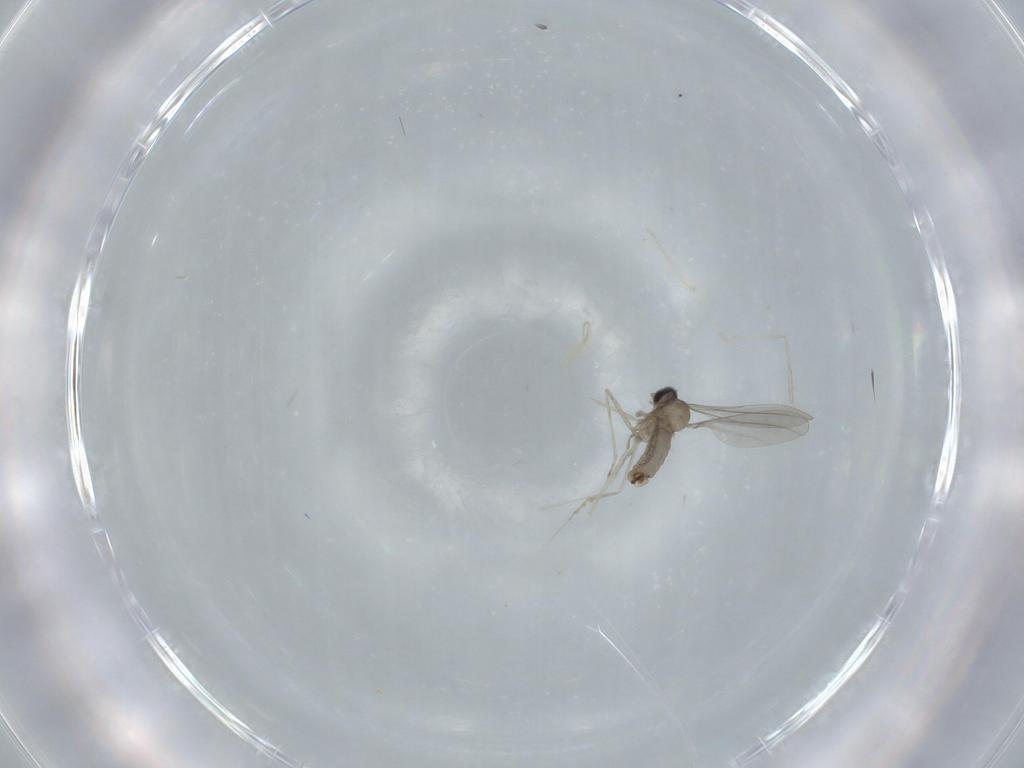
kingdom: Animalia
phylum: Arthropoda
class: Insecta
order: Diptera
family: Cecidomyiidae
